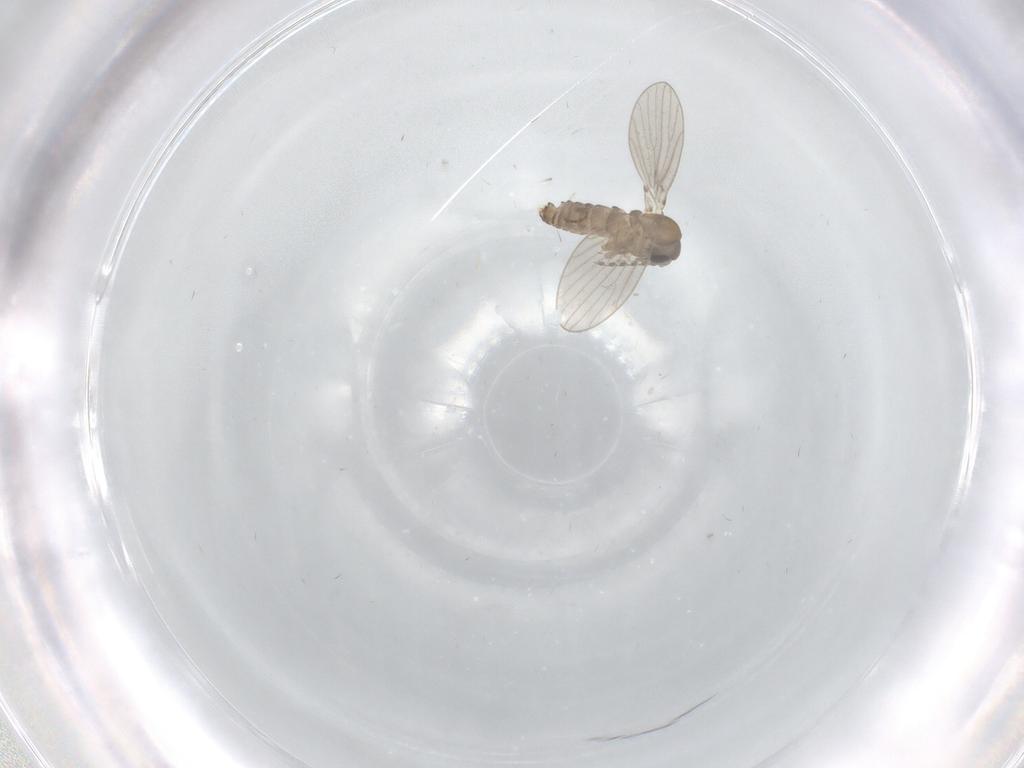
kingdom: Animalia
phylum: Arthropoda
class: Insecta
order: Diptera
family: Psychodidae
